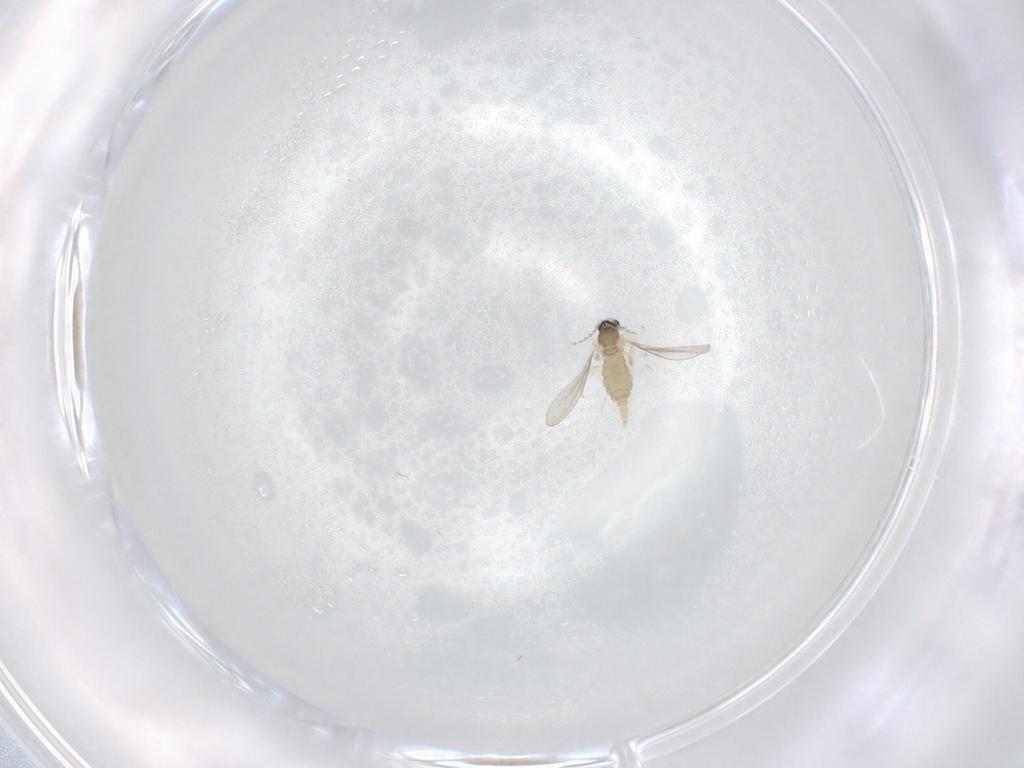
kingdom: Animalia
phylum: Arthropoda
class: Insecta
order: Diptera
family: Cecidomyiidae
